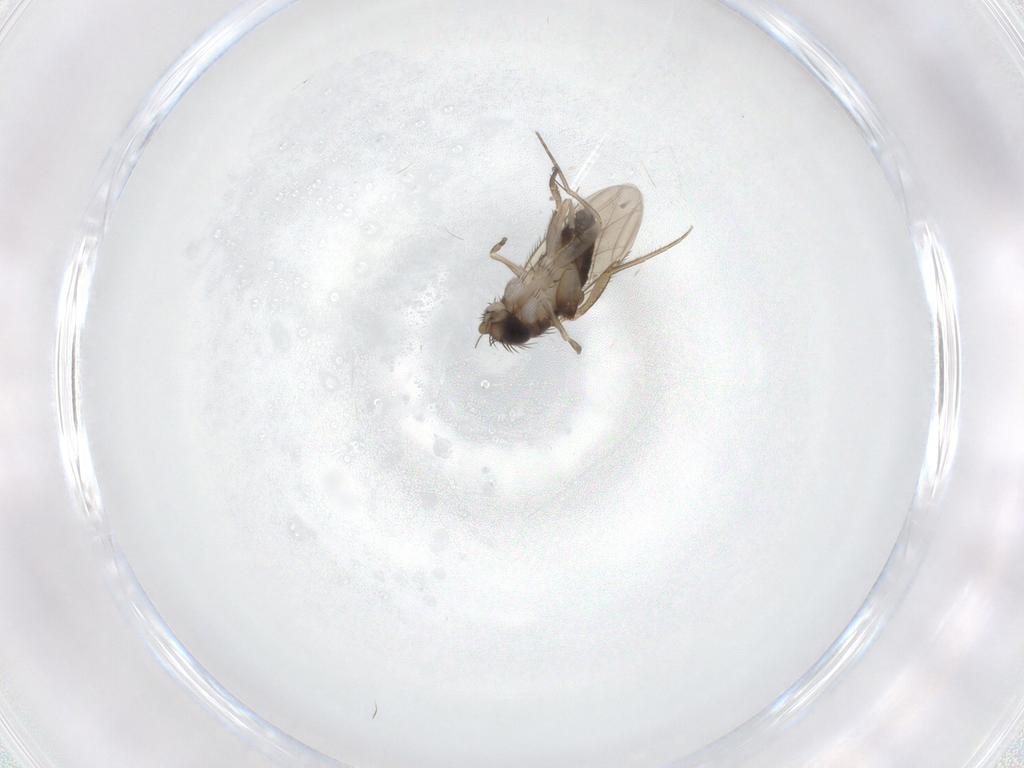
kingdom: Animalia
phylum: Arthropoda
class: Insecta
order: Diptera
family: Phoridae
